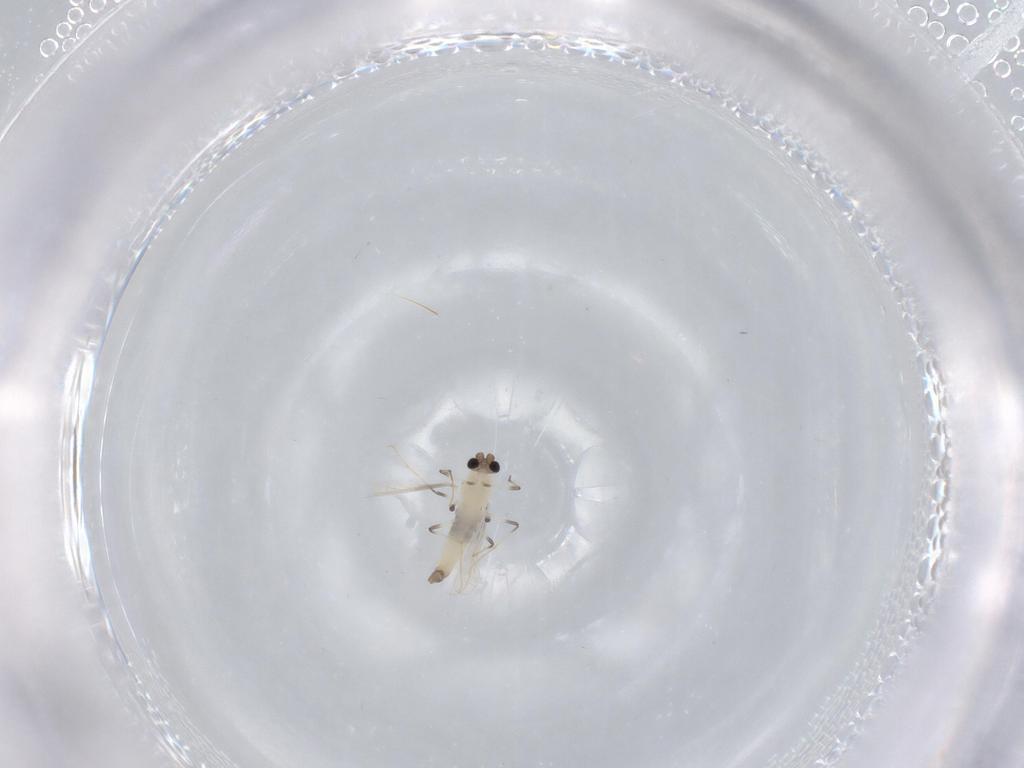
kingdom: Animalia
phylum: Arthropoda
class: Insecta
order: Diptera
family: Chironomidae
